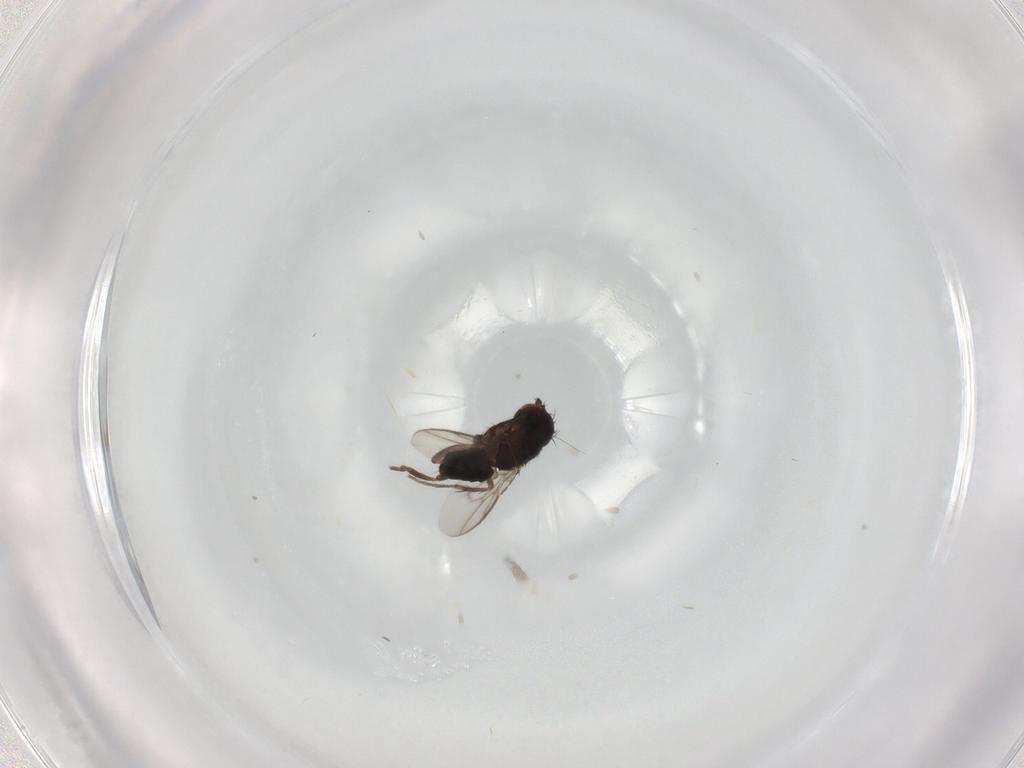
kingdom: Animalia
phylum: Arthropoda
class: Insecta
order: Diptera
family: Sphaeroceridae
